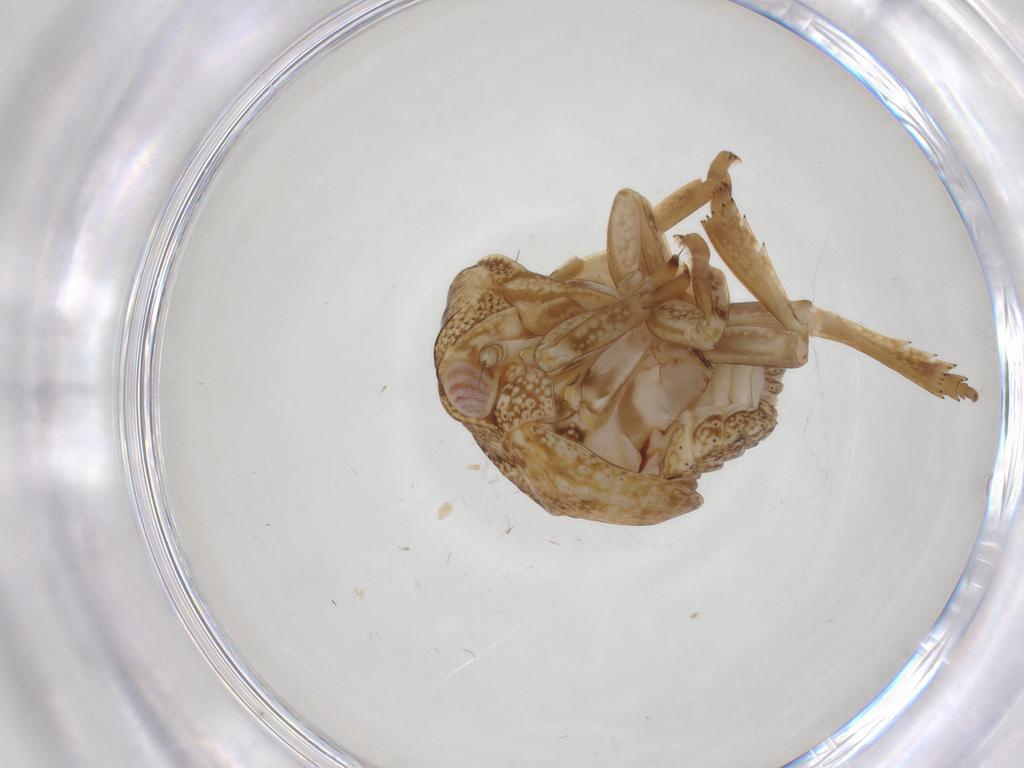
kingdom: Animalia
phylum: Arthropoda
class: Insecta
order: Hemiptera
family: Acanaloniidae
